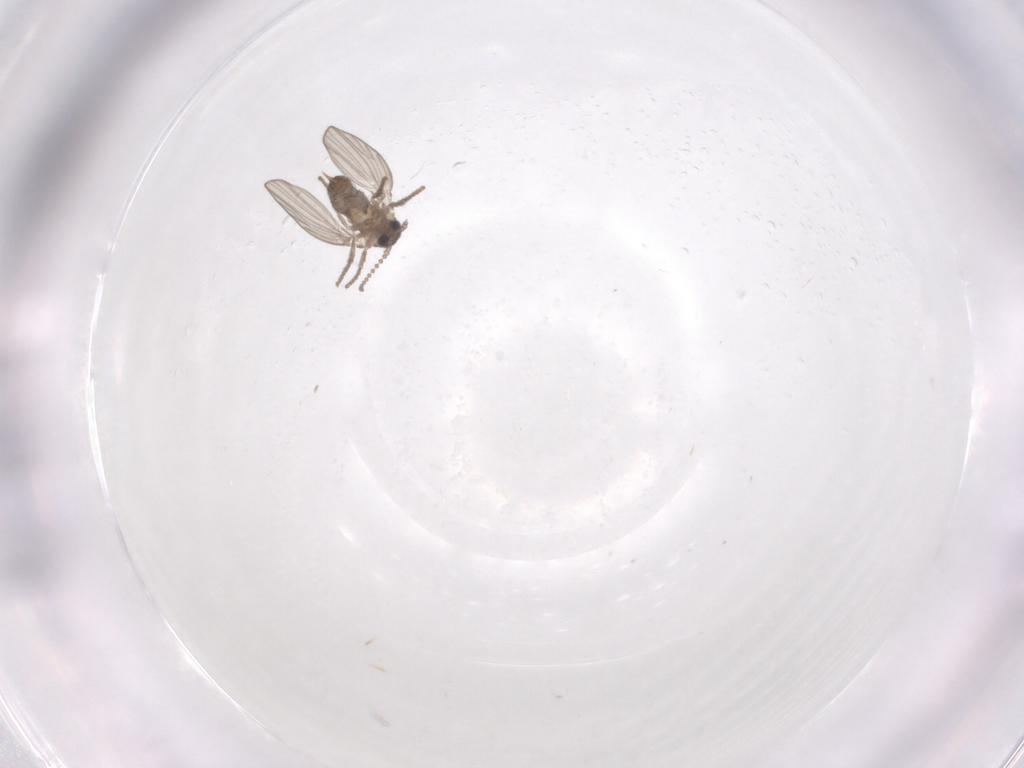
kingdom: Animalia
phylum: Arthropoda
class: Insecta
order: Diptera
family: Psychodidae
